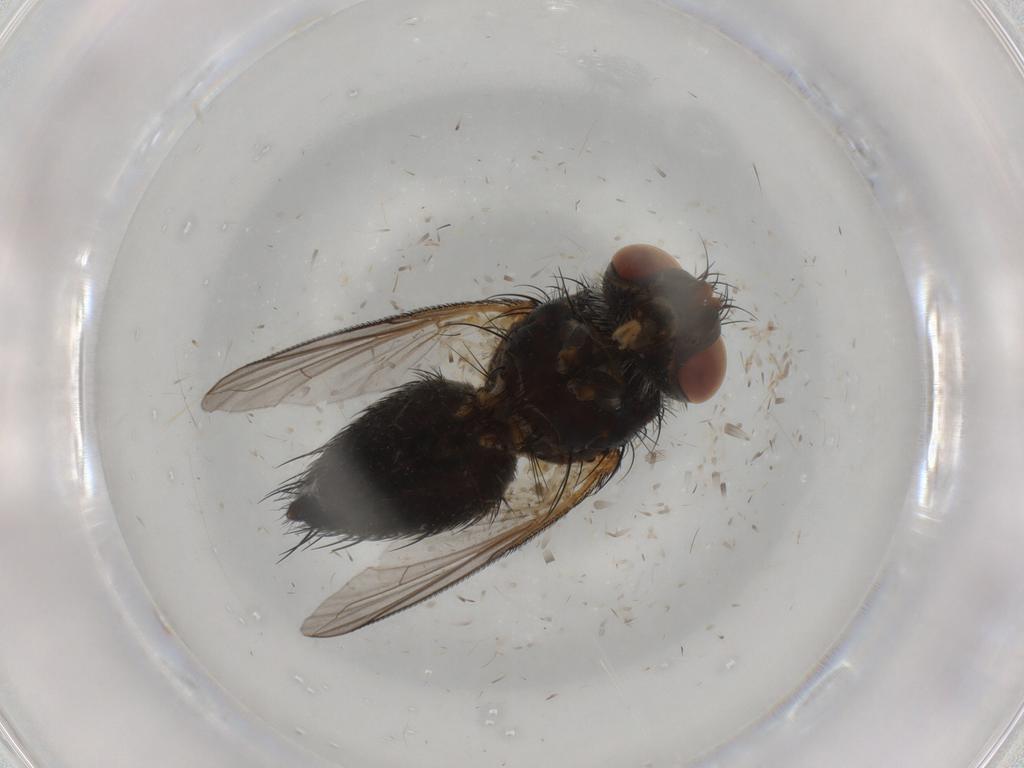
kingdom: Animalia
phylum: Arthropoda
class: Insecta
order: Diptera
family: Tachinidae
